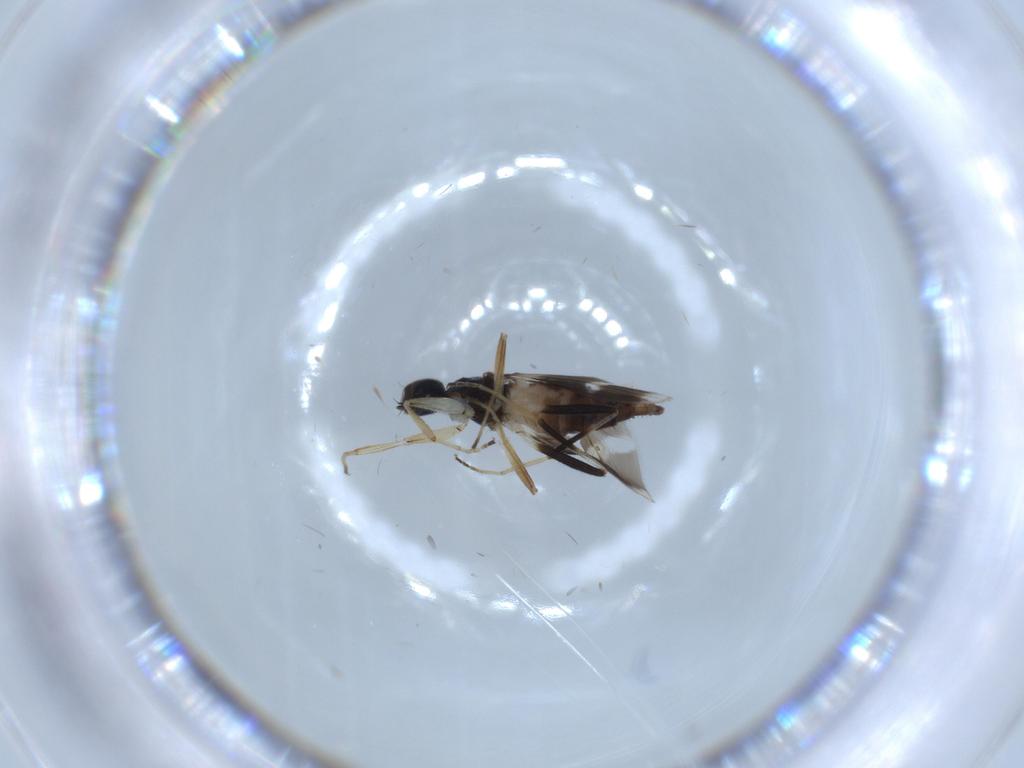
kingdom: Animalia
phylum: Arthropoda
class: Insecta
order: Diptera
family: Hybotidae
